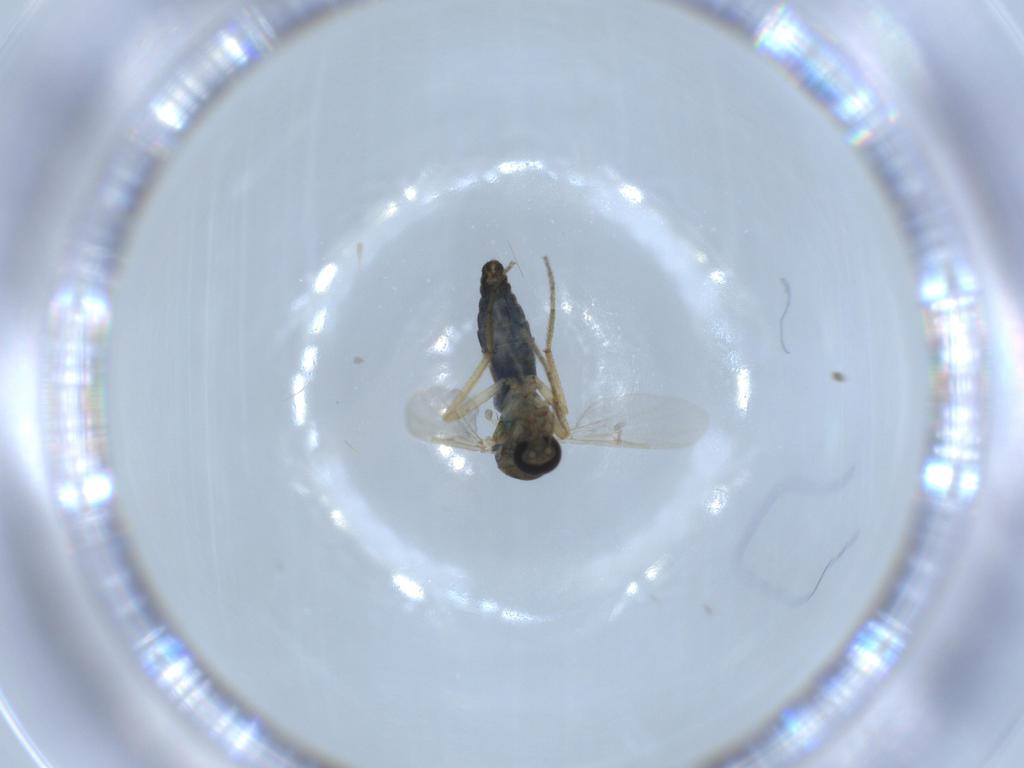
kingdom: Animalia
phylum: Arthropoda
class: Insecta
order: Diptera
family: Ceratopogonidae
